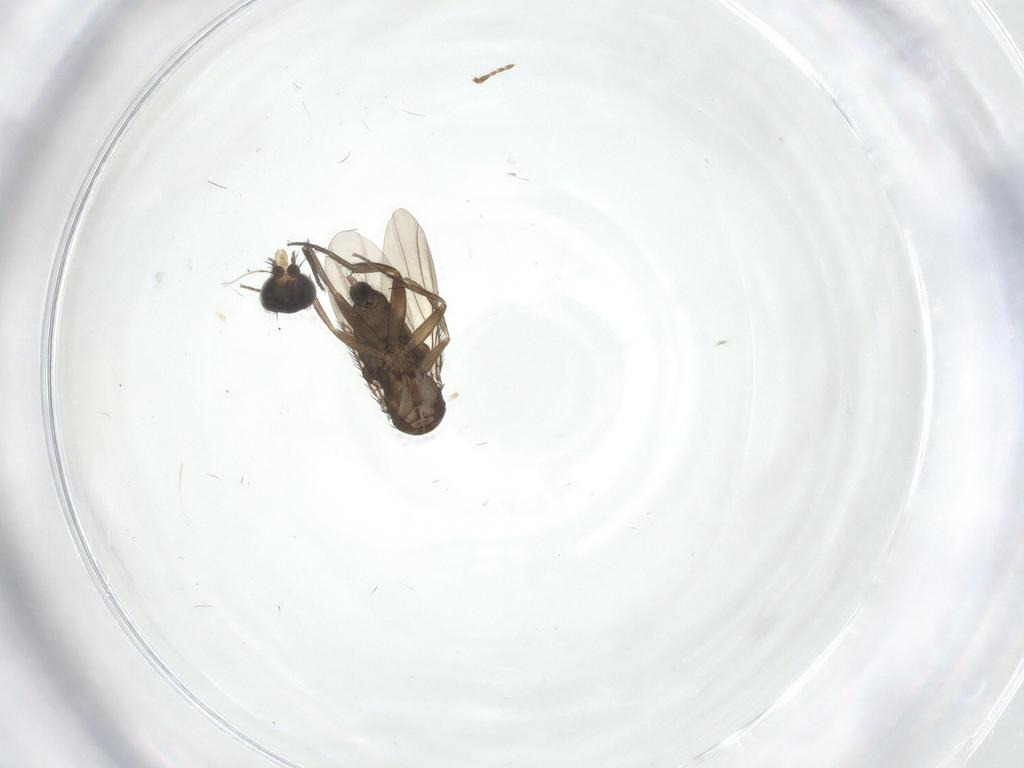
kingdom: Animalia
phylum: Arthropoda
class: Insecta
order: Diptera
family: Phoridae
